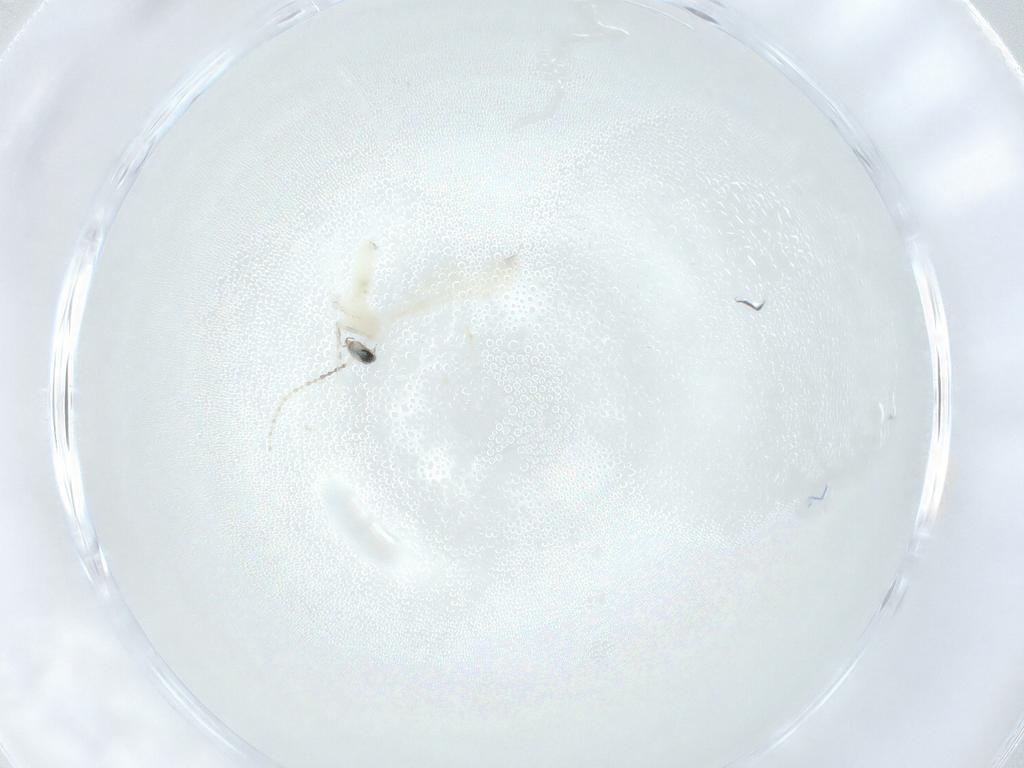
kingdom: Animalia
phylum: Arthropoda
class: Insecta
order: Diptera
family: Cecidomyiidae
